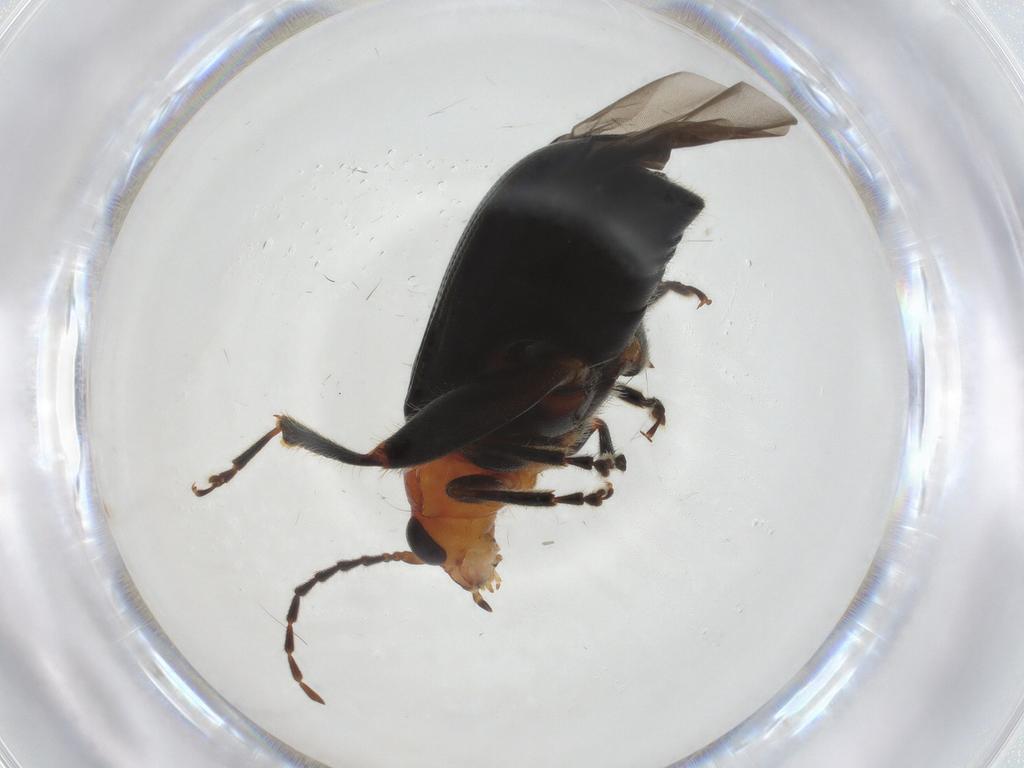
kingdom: Animalia
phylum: Arthropoda
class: Insecta
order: Coleoptera
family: Chrysomelidae
